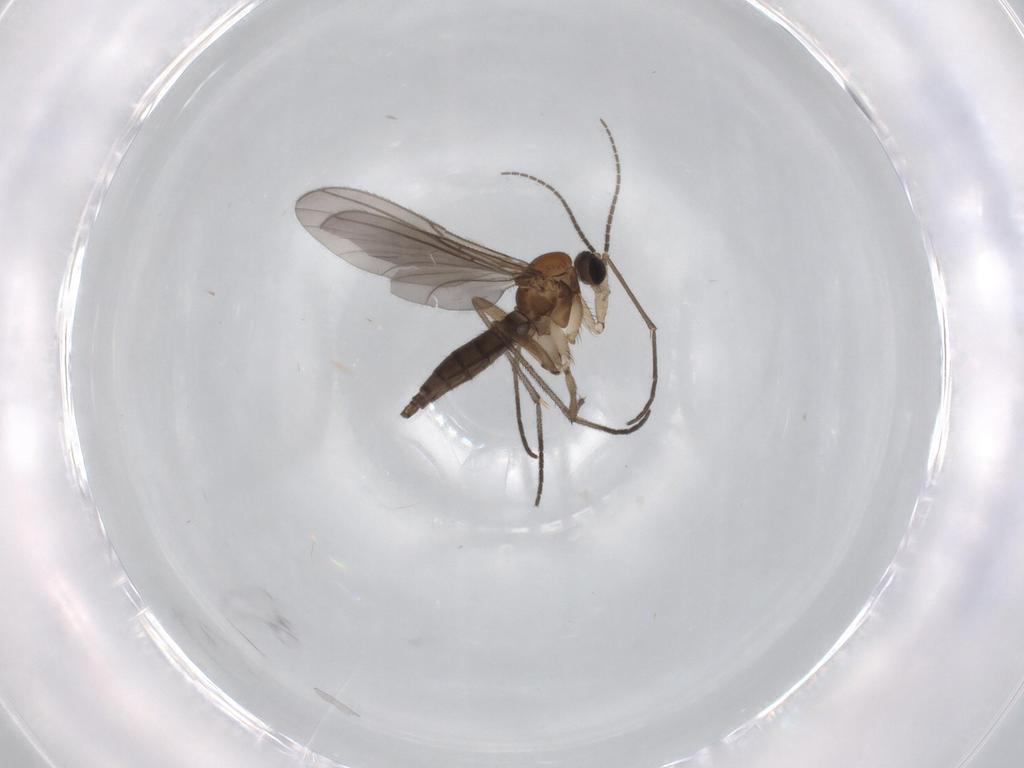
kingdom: Animalia
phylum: Arthropoda
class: Insecta
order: Diptera
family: Sciaridae
